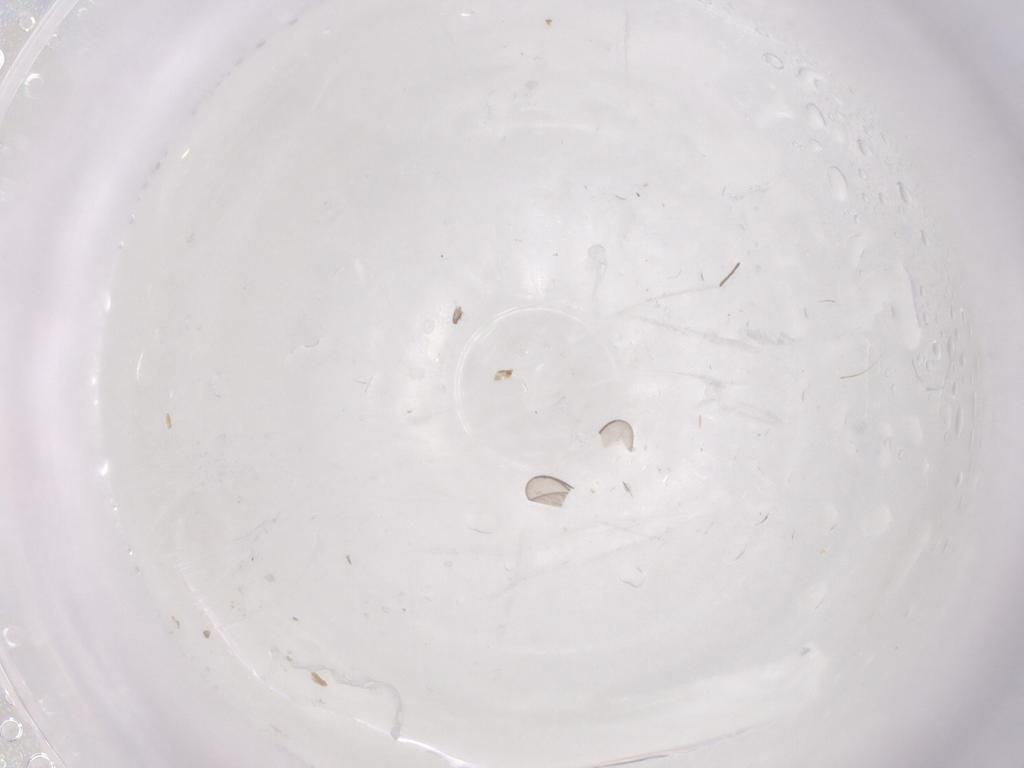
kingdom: Animalia
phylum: Arthropoda
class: Insecta
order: Diptera
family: Chironomidae
